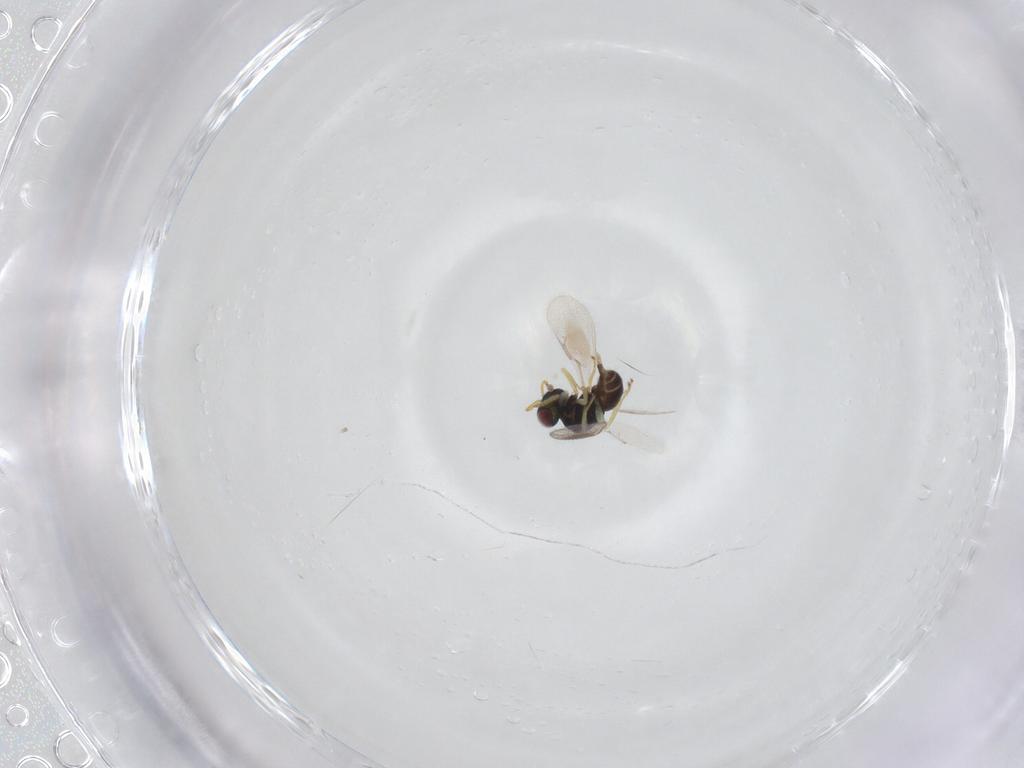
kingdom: Animalia
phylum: Arthropoda
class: Insecta
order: Hymenoptera
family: Pteromalidae
